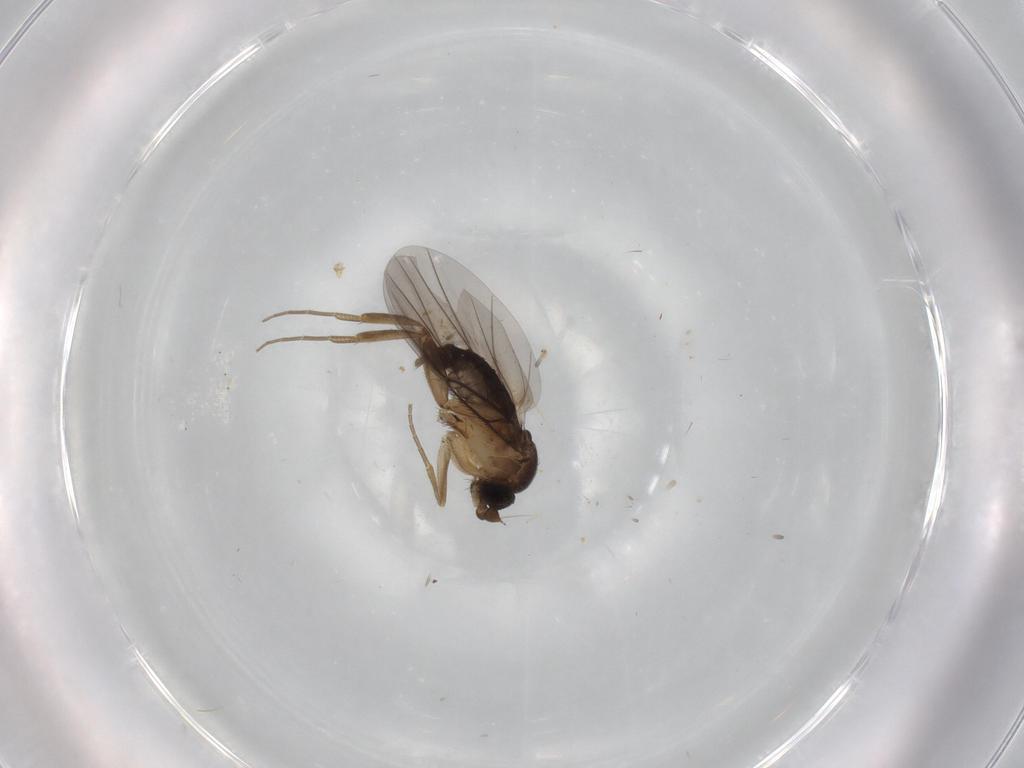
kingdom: Animalia
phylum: Arthropoda
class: Insecta
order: Diptera
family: Phoridae
